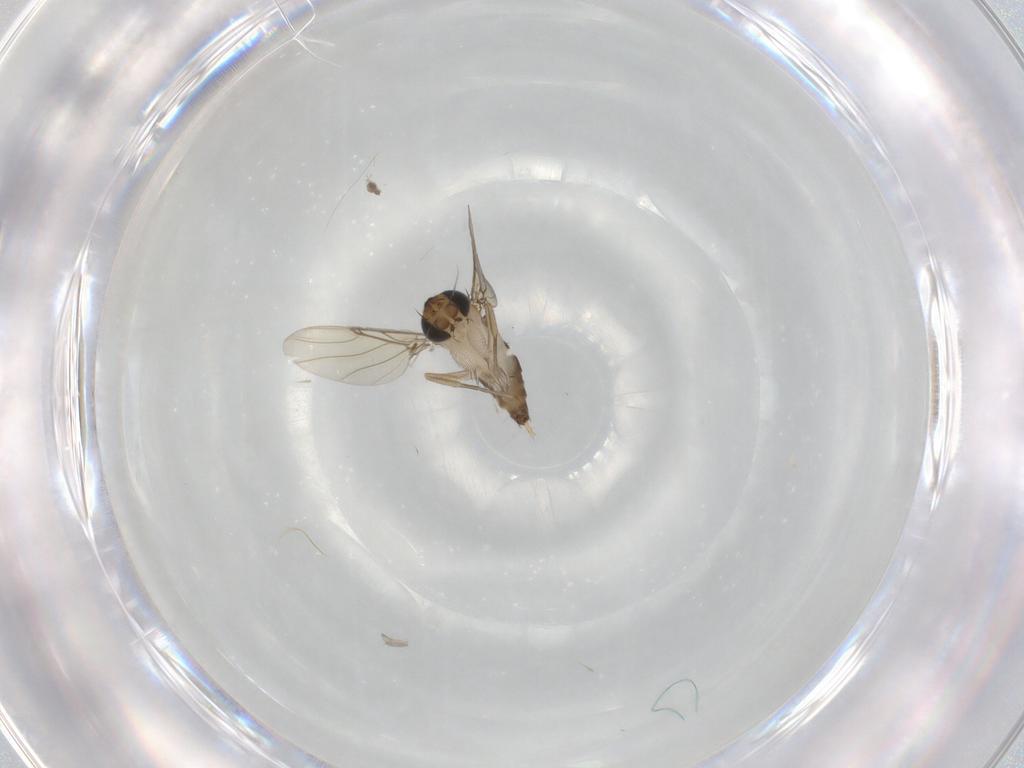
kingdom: Animalia
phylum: Arthropoda
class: Insecta
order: Diptera
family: Phoridae
